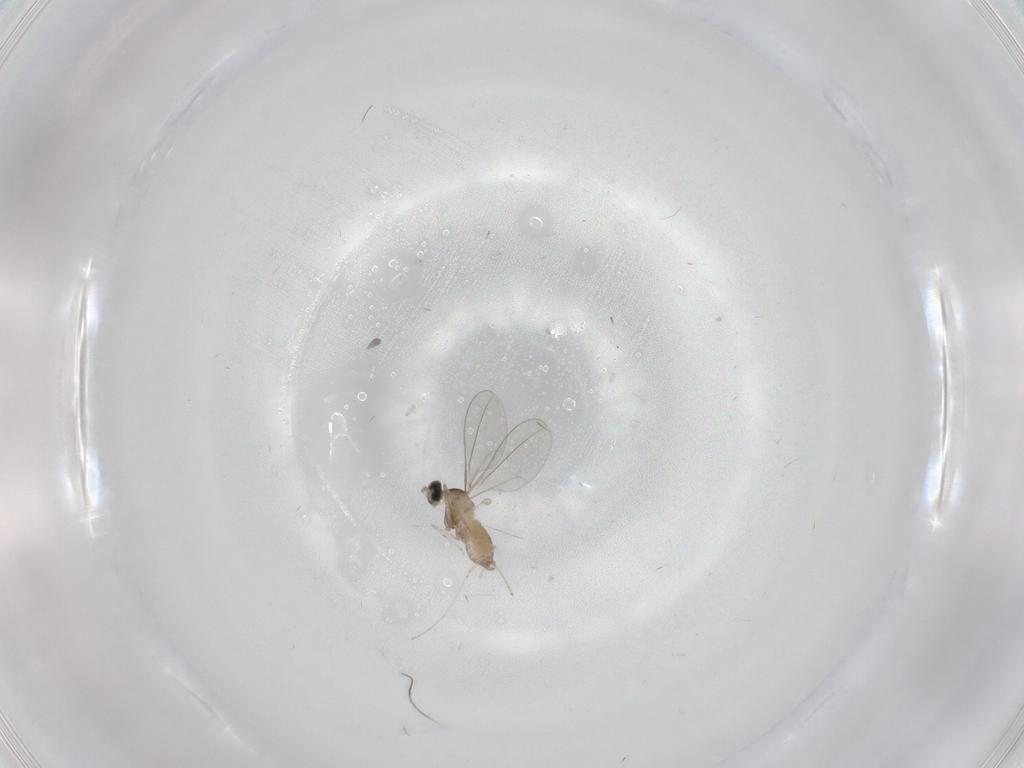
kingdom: Animalia
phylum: Arthropoda
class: Insecta
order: Diptera
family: Cecidomyiidae
